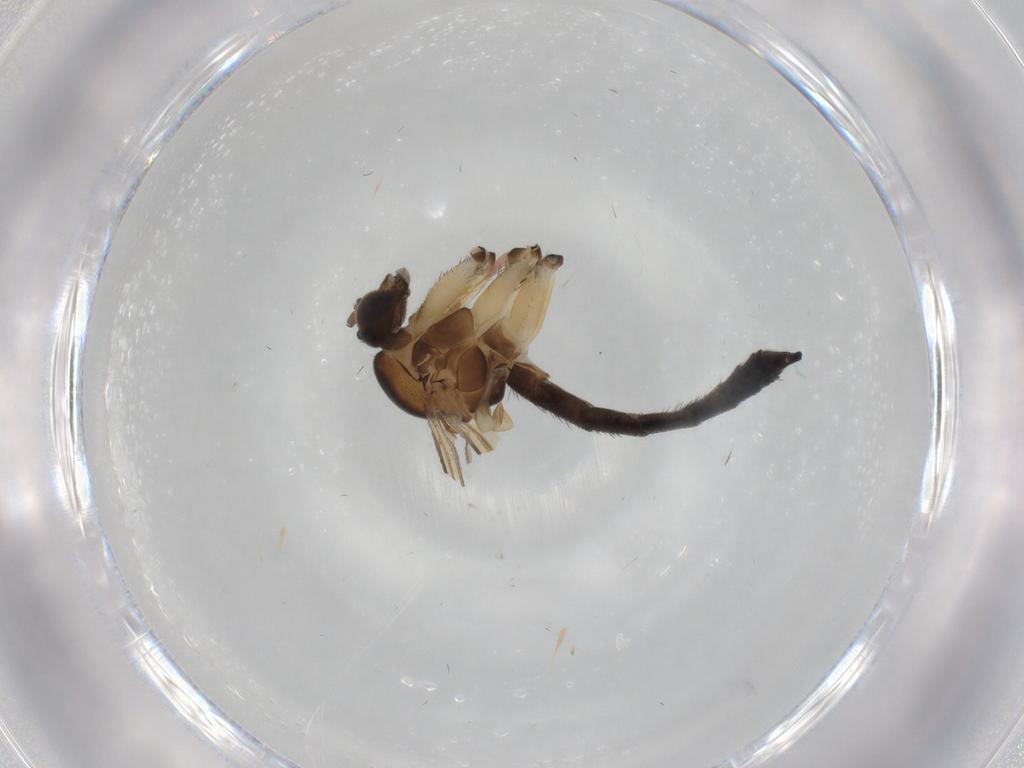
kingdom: Animalia
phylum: Arthropoda
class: Insecta
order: Diptera
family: Keroplatidae
